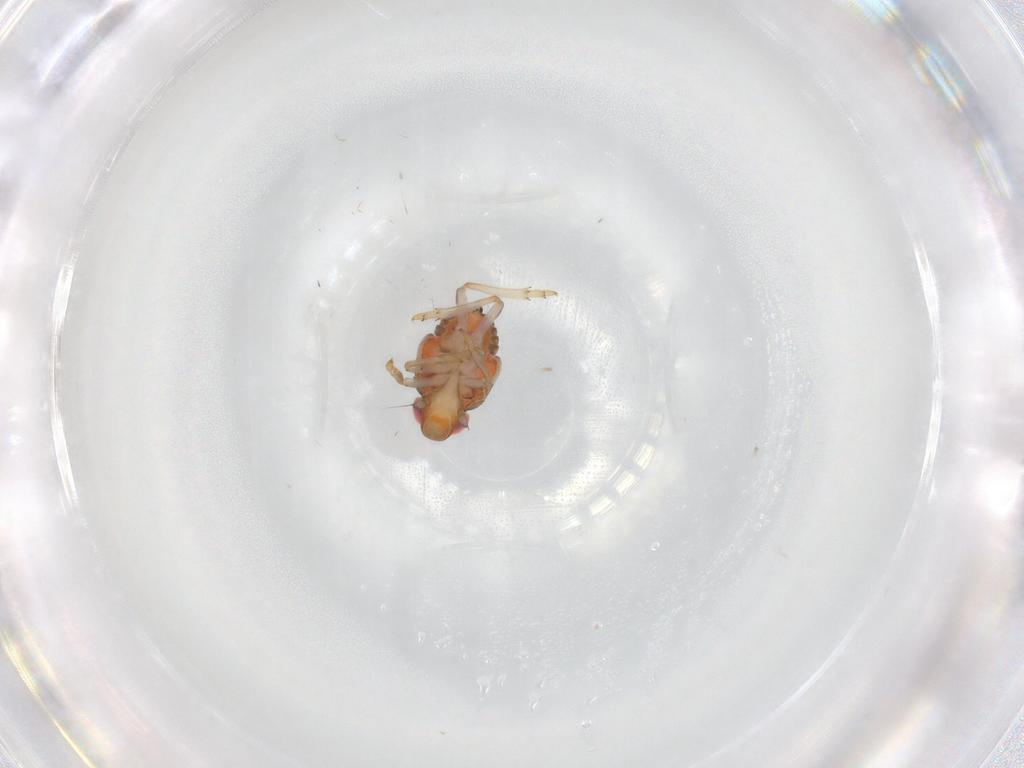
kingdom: Animalia
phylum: Arthropoda
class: Insecta
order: Hemiptera
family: Issidae
